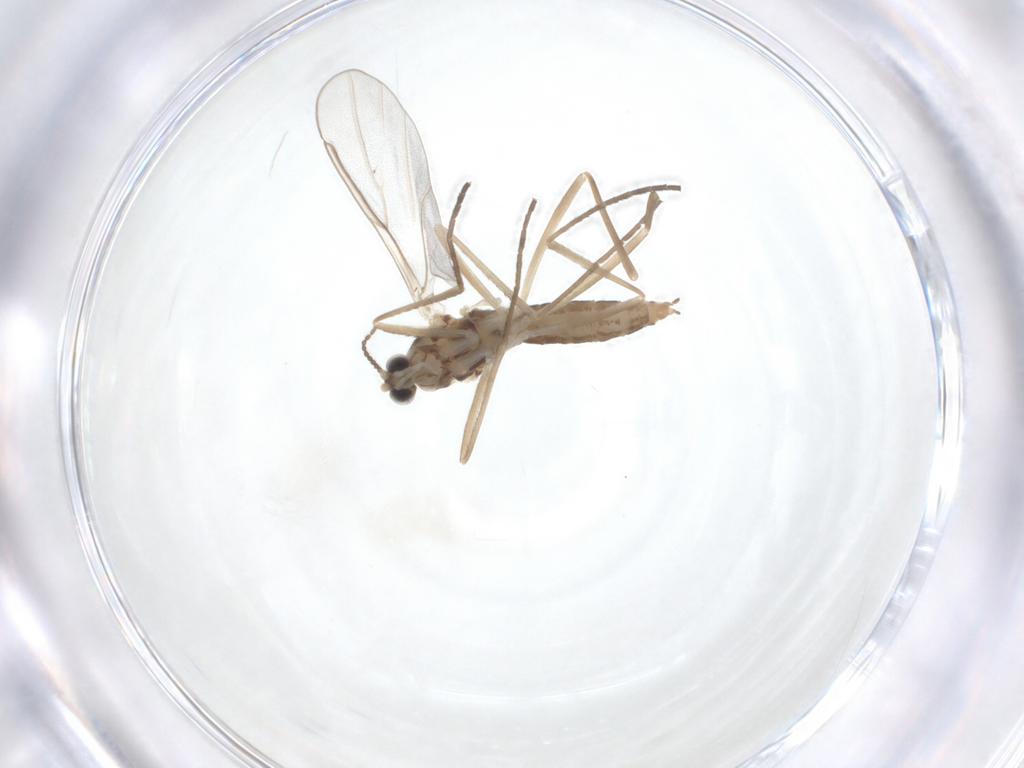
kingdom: Animalia
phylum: Arthropoda
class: Insecta
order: Diptera
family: Cecidomyiidae
